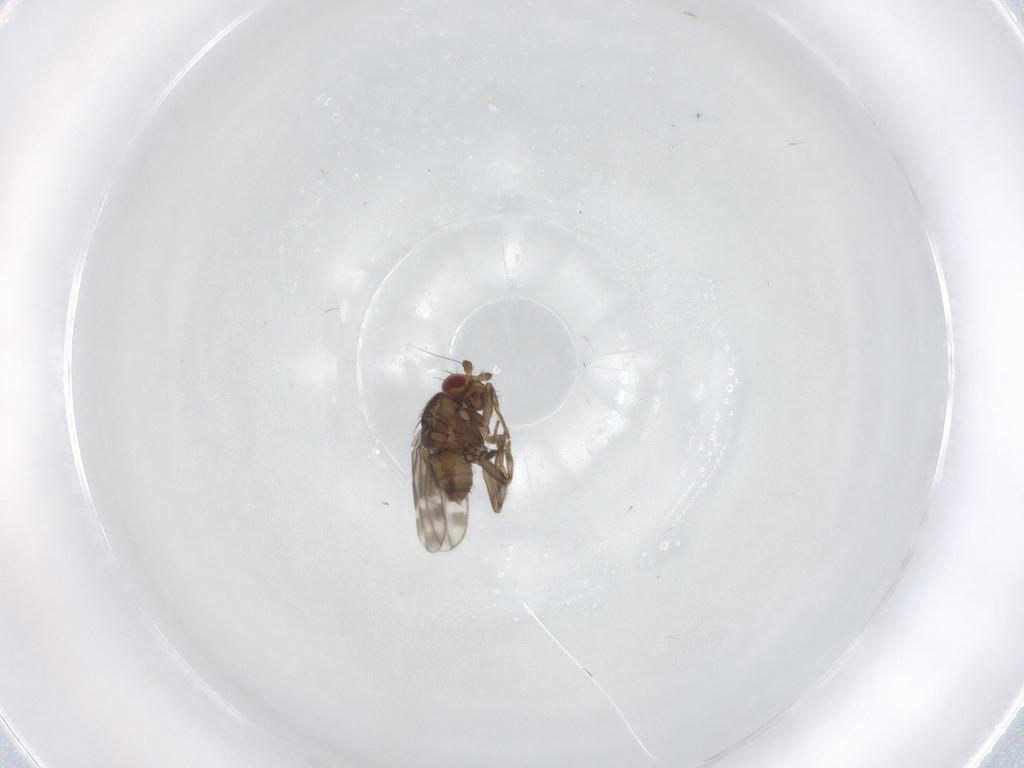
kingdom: Animalia
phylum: Arthropoda
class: Insecta
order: Diptera
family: Sphaeroceridae
